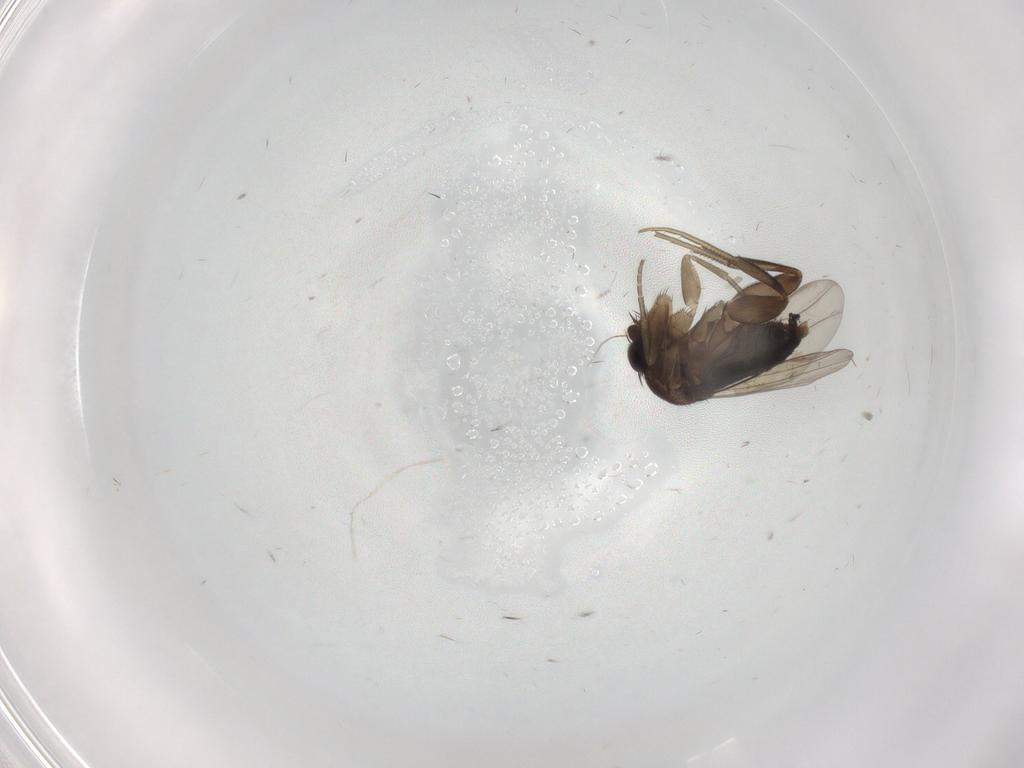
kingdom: Animalia
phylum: Arthropoda
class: Insecta
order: Diptera
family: Phoridae
